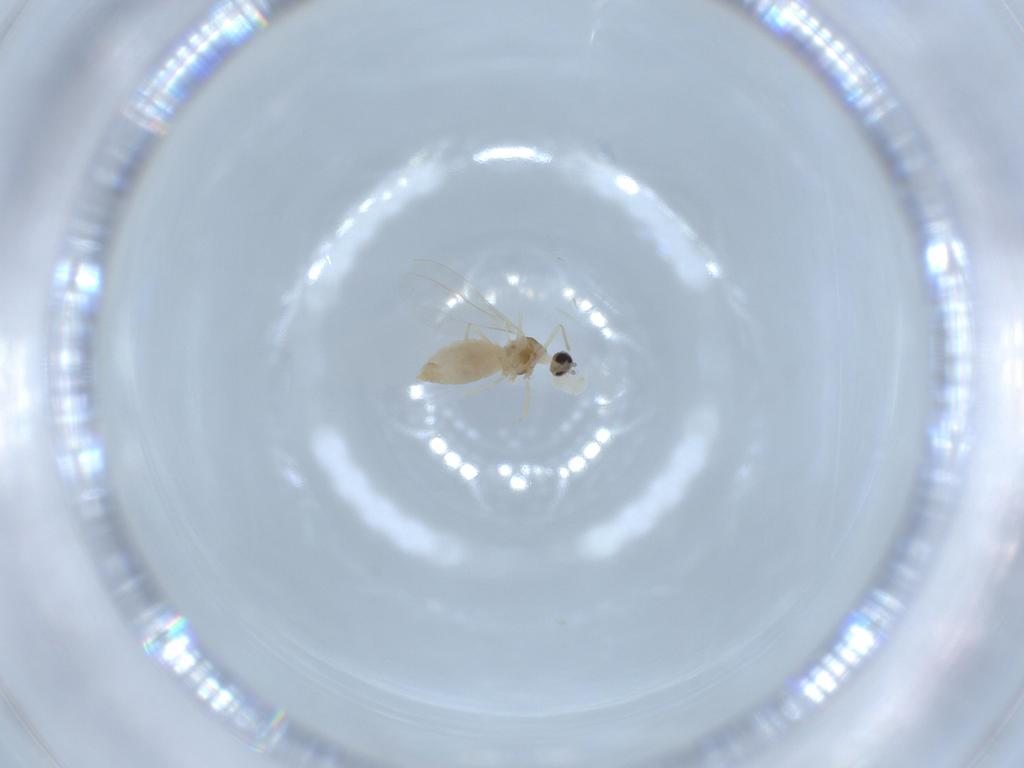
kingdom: Animalia
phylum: Arthropoda
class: Insecta
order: Diptera
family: Cecidomyiidae
